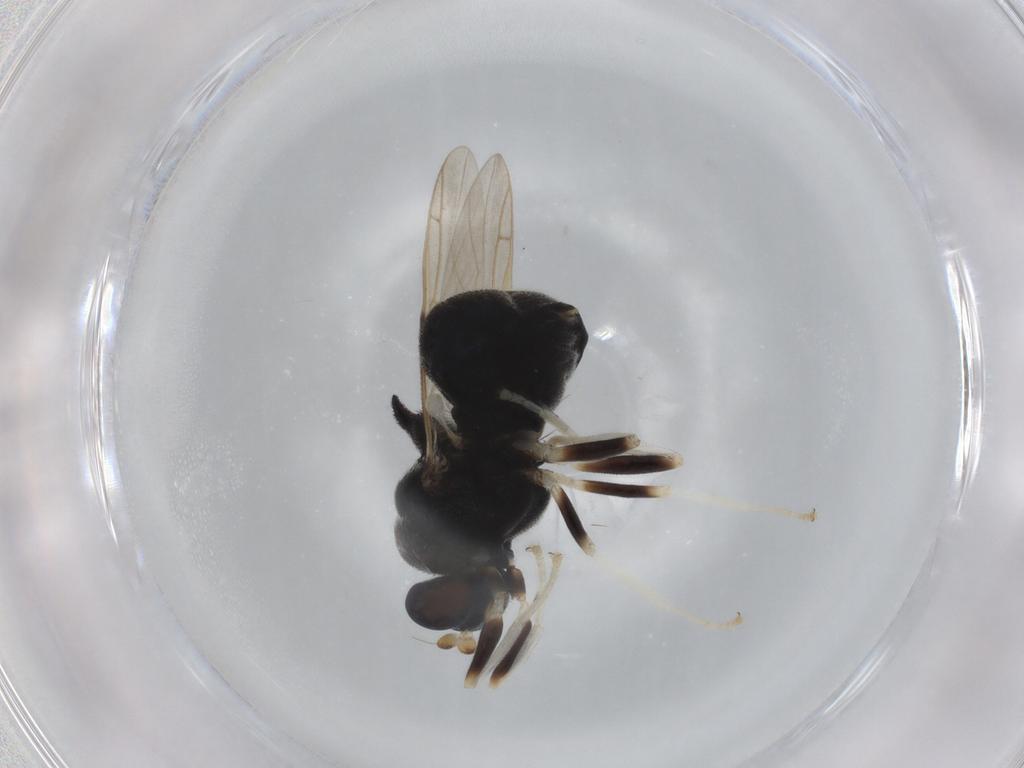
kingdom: Animalia
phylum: Arthropoda
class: Insecta
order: Diptera
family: Stratiomyidae
